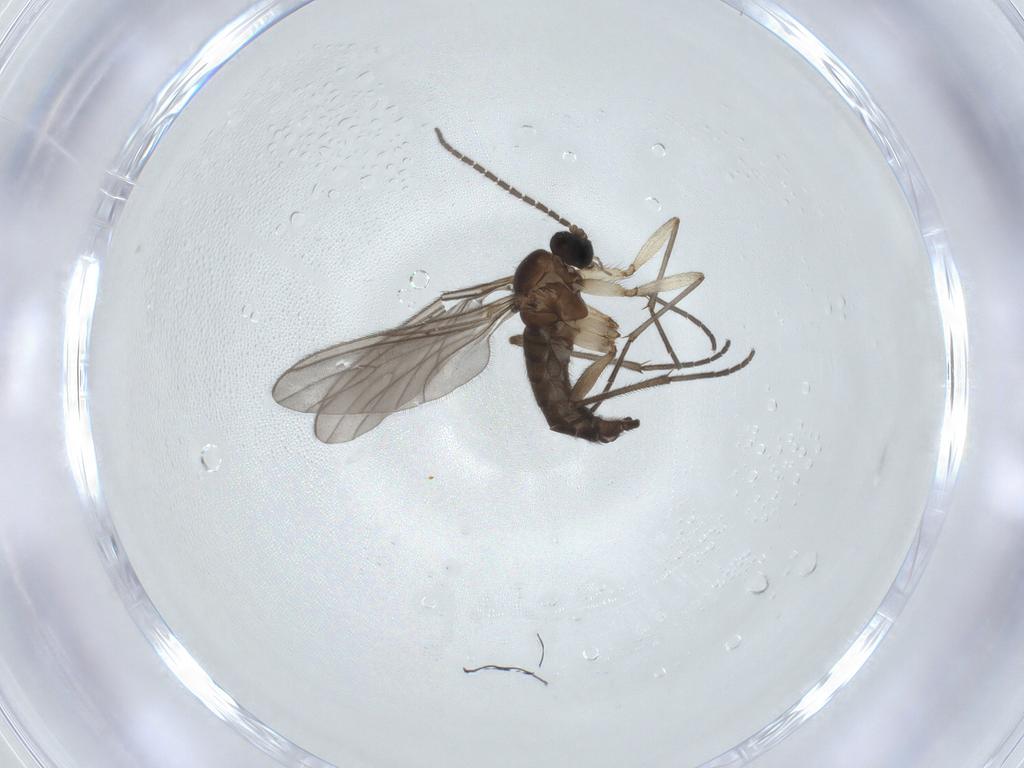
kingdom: Animalia
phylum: Arthropoda
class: Insecta
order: Diptera
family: Sciaridae
